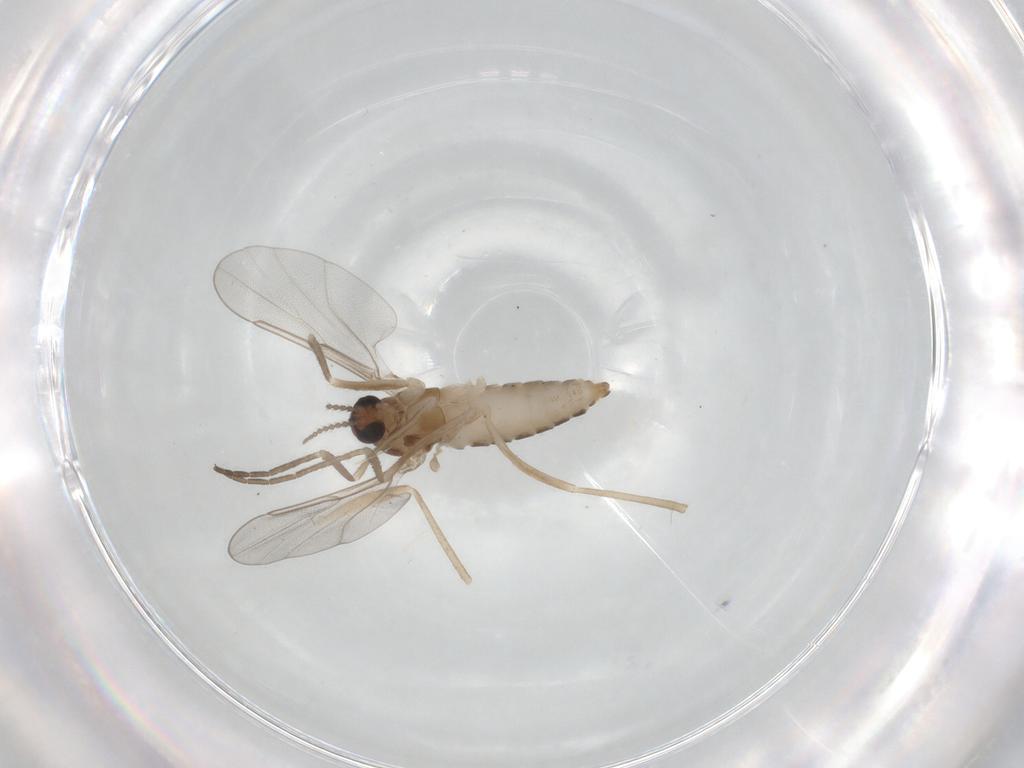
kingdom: Animalia
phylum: Arthropoda
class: Insecta
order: Diptera
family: Cecidomyiidae
